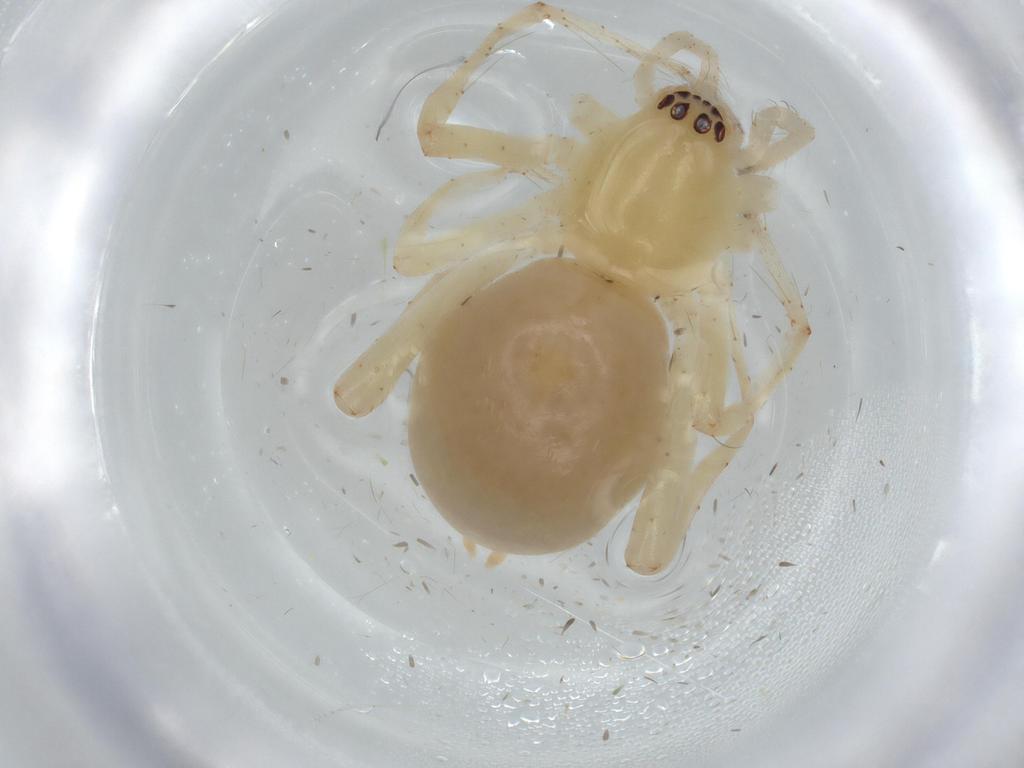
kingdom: Animalia
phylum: Arthropoda
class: Arachnida
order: Araneae
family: Anyphaenidae
